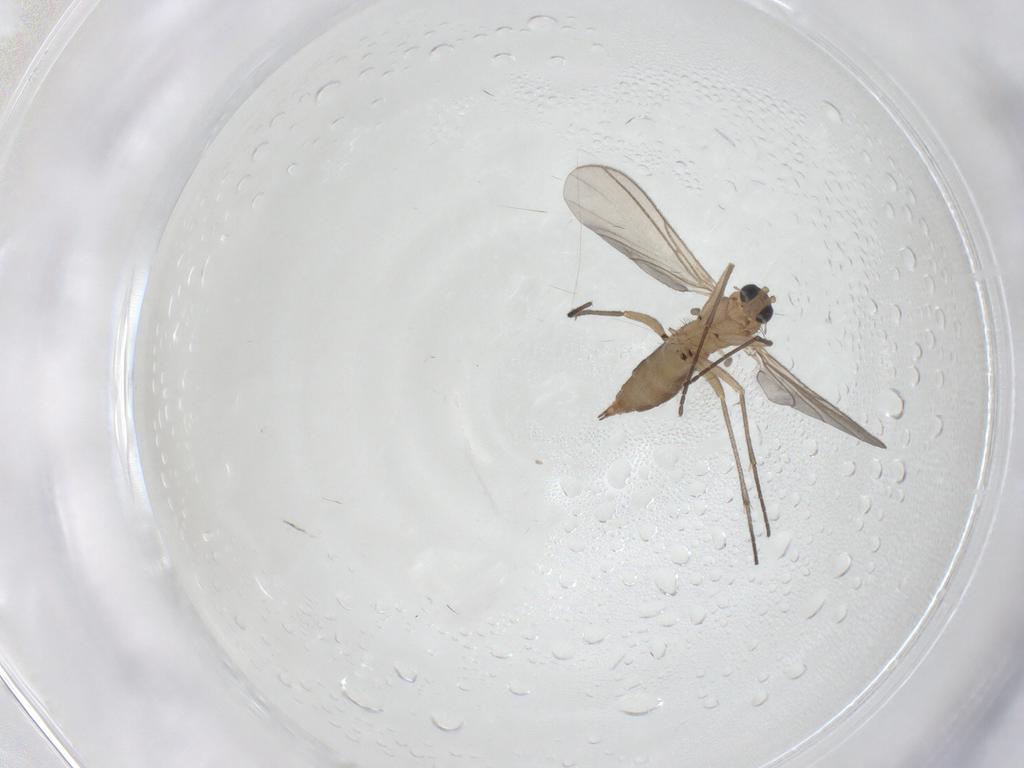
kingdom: Animalia
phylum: Arthropoda
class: Insecta
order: Diptera
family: Sciaridae
